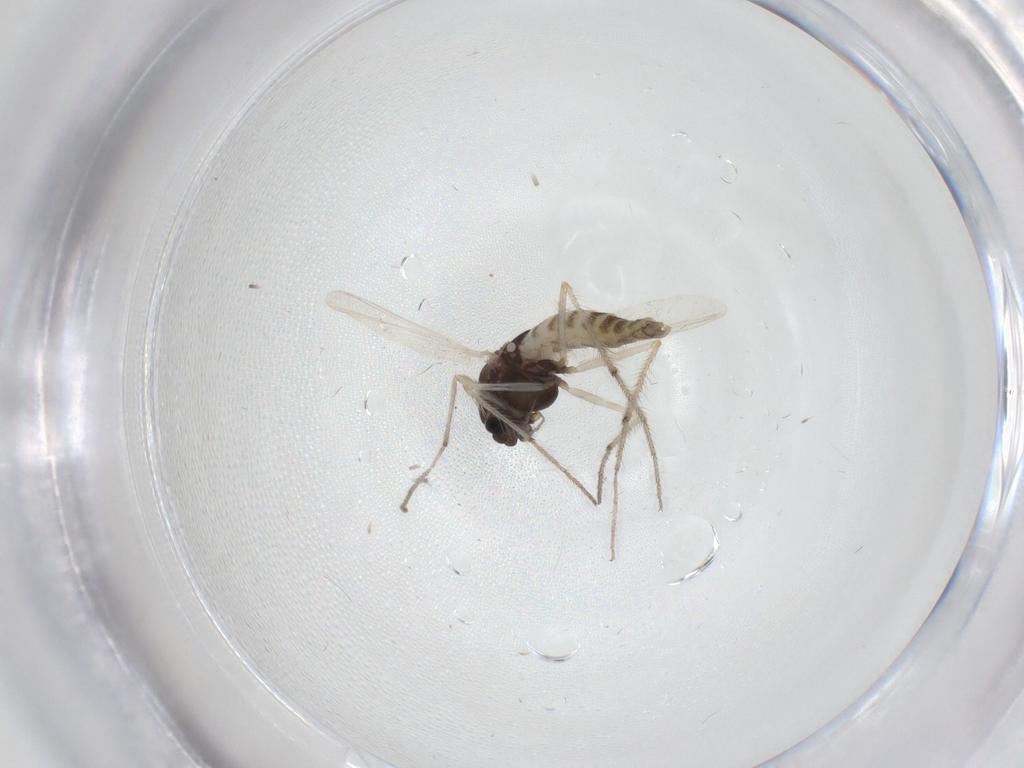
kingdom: Animalia
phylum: Arthropoda
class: Insecta
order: Diptera
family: Chironomidae
